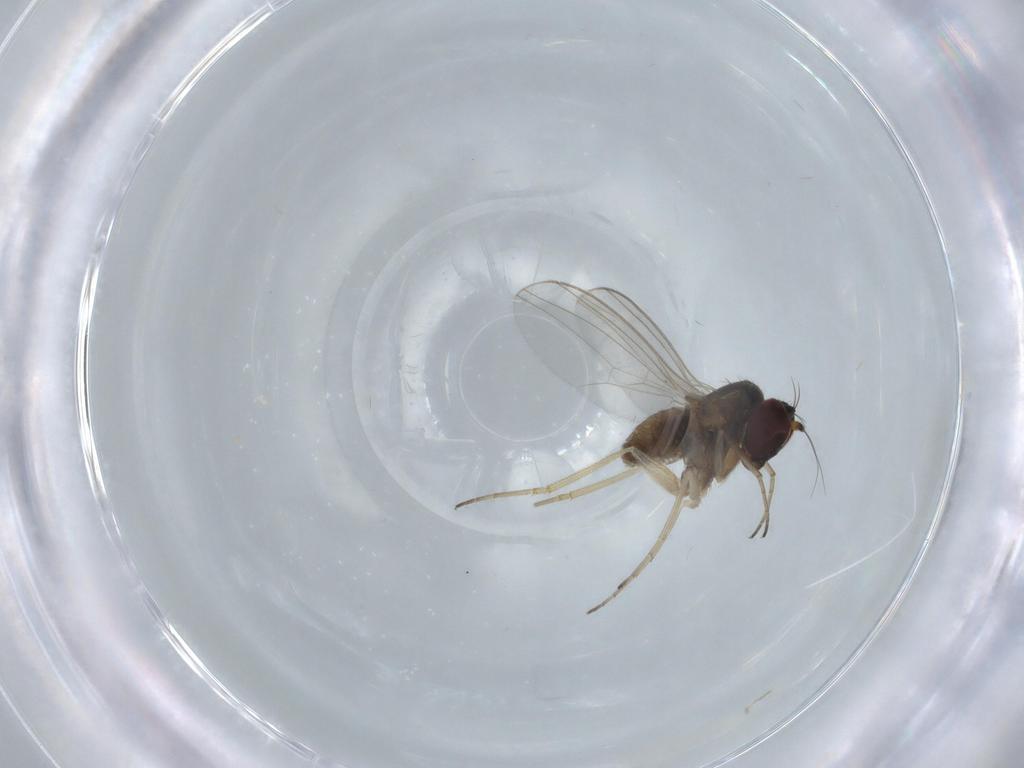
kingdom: Animalia
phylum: Arthropoda
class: Insecta
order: Diptera
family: Dolichopodidae
